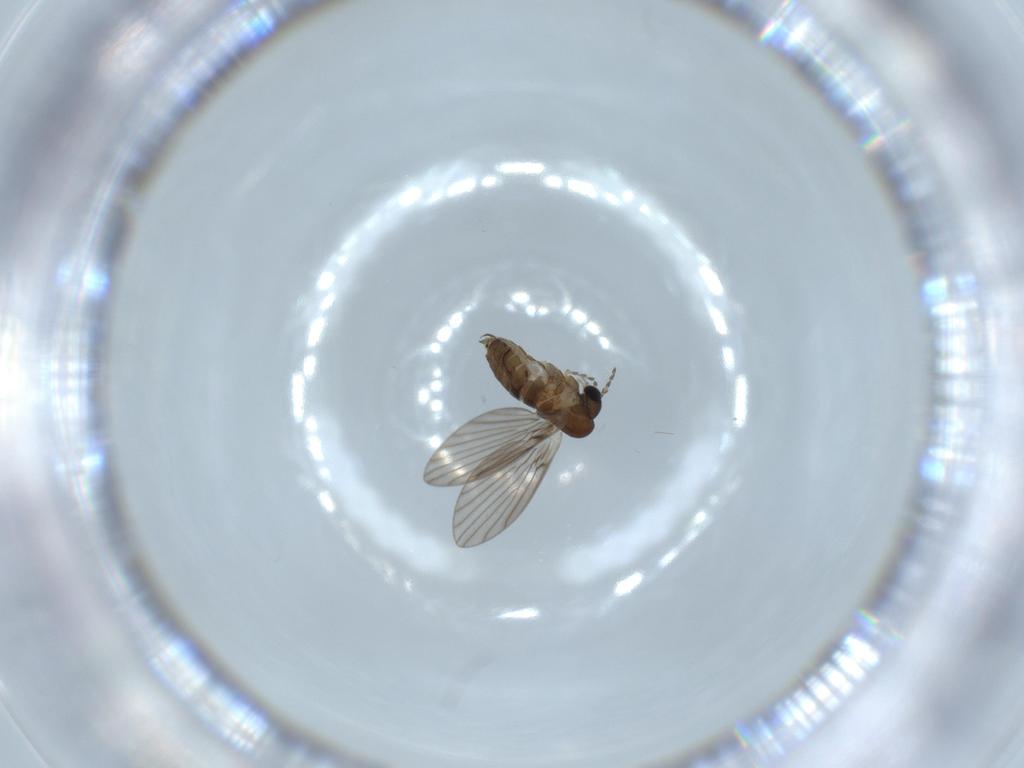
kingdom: Animalia
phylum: Arthropoda
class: Insecta
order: Diptera
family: Psychodidae
